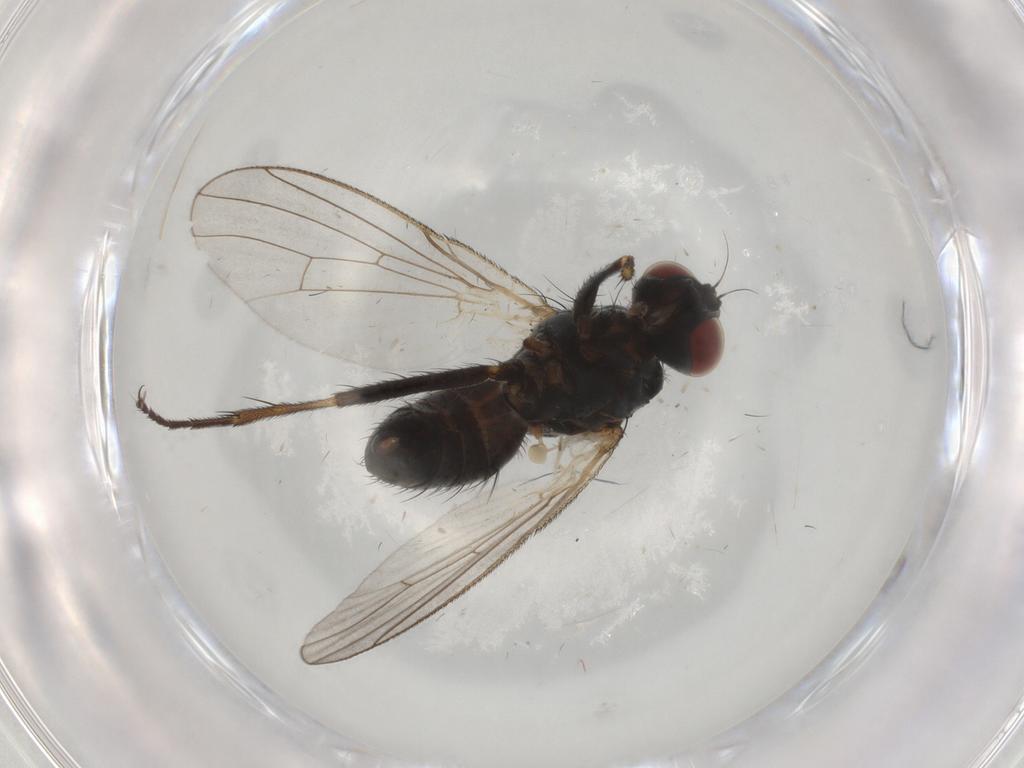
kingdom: Animalia
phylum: Arthropoda
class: Insecta
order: Diptera
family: Muscidae
